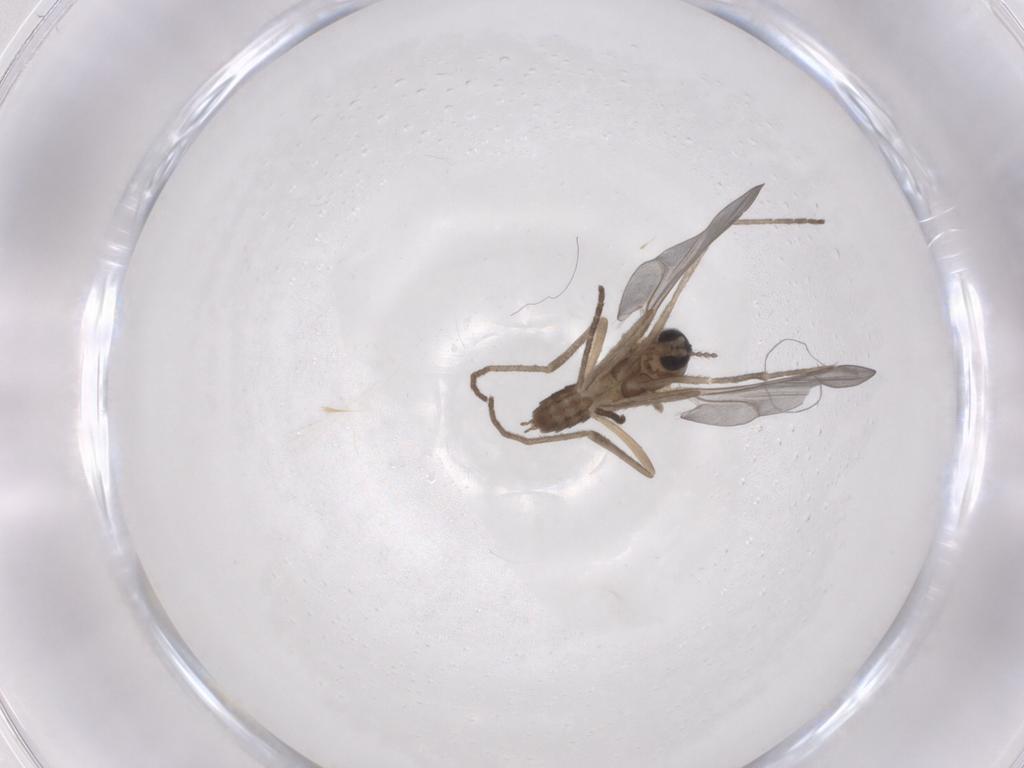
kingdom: Animalia
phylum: Arthropoda
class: Insecta
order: Diptera
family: Cecidomyiidae
